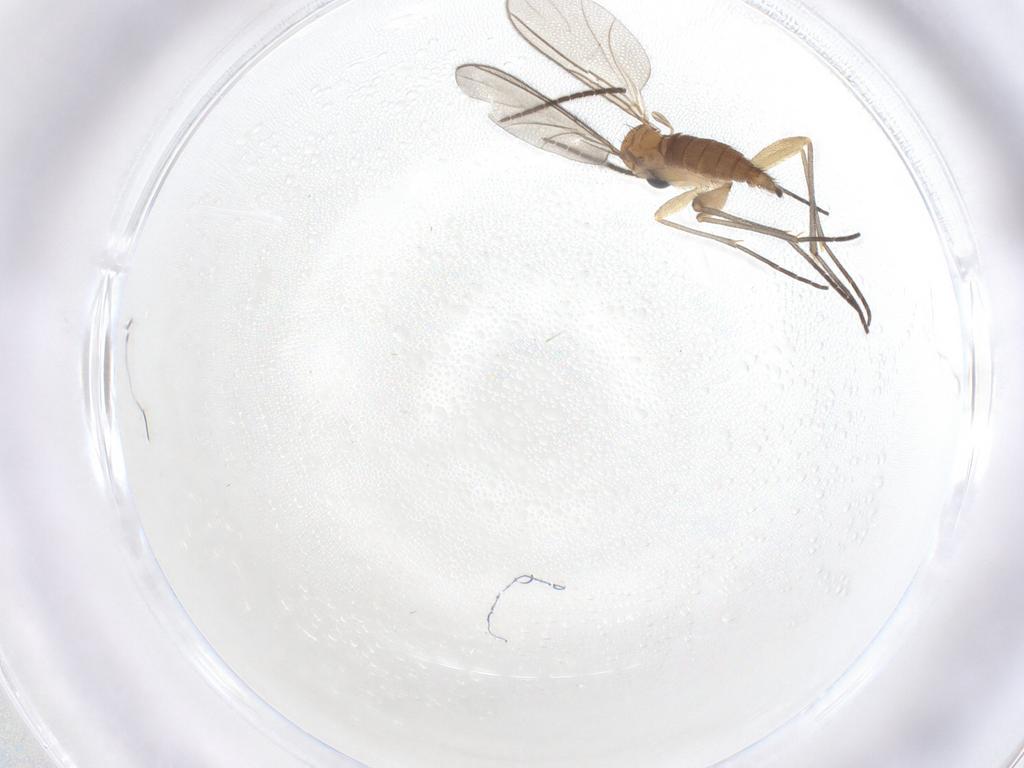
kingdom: Animalia
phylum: Arthropoda
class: Insecta
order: Diptera
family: Sciaridae
